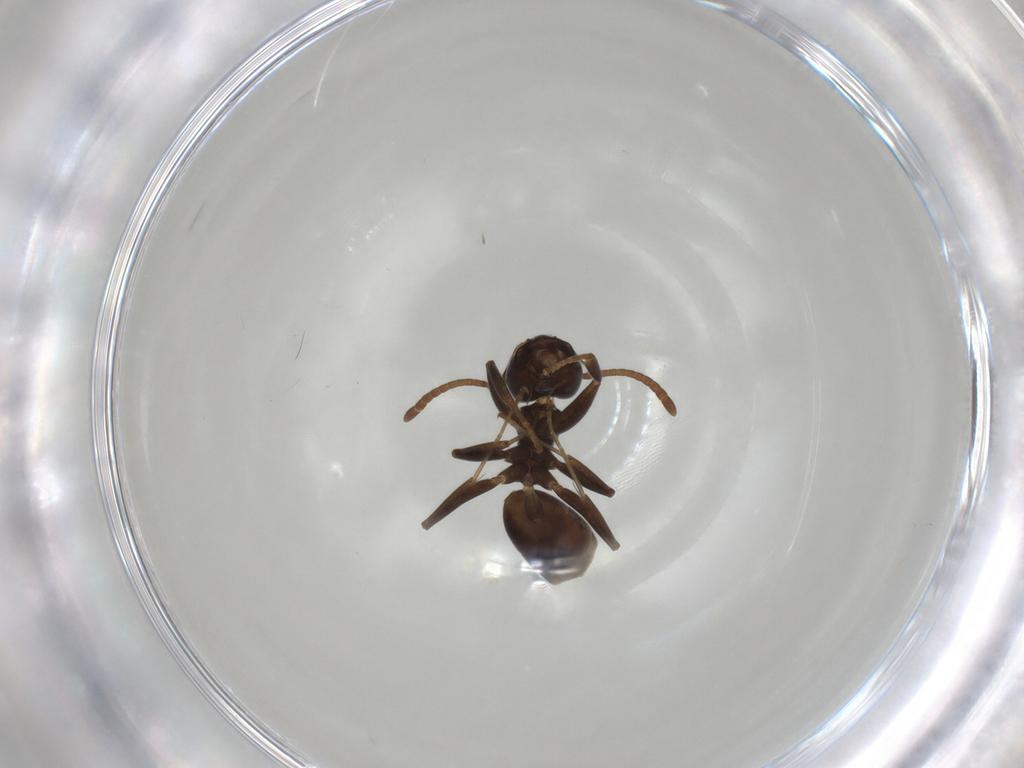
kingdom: Animalia
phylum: Arthropoda
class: Insecta
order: Hymenoptera
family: Formicidae
